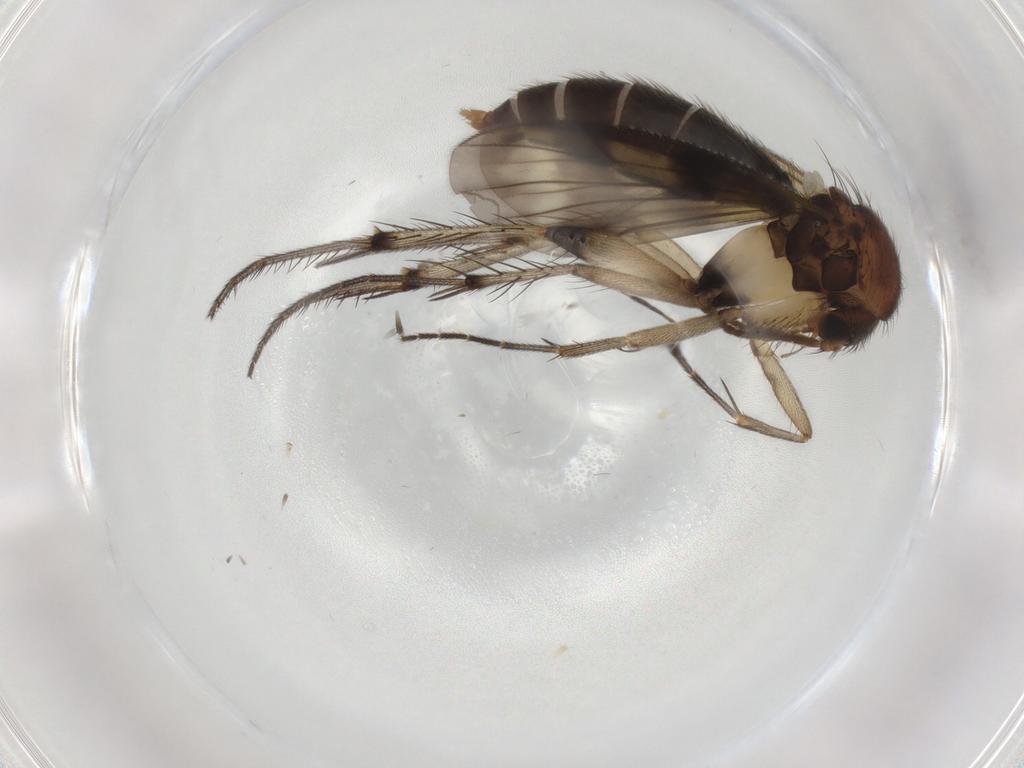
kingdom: Animalia
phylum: Arthropoda
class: Insecta
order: Diptera
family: Mycetophilidae
